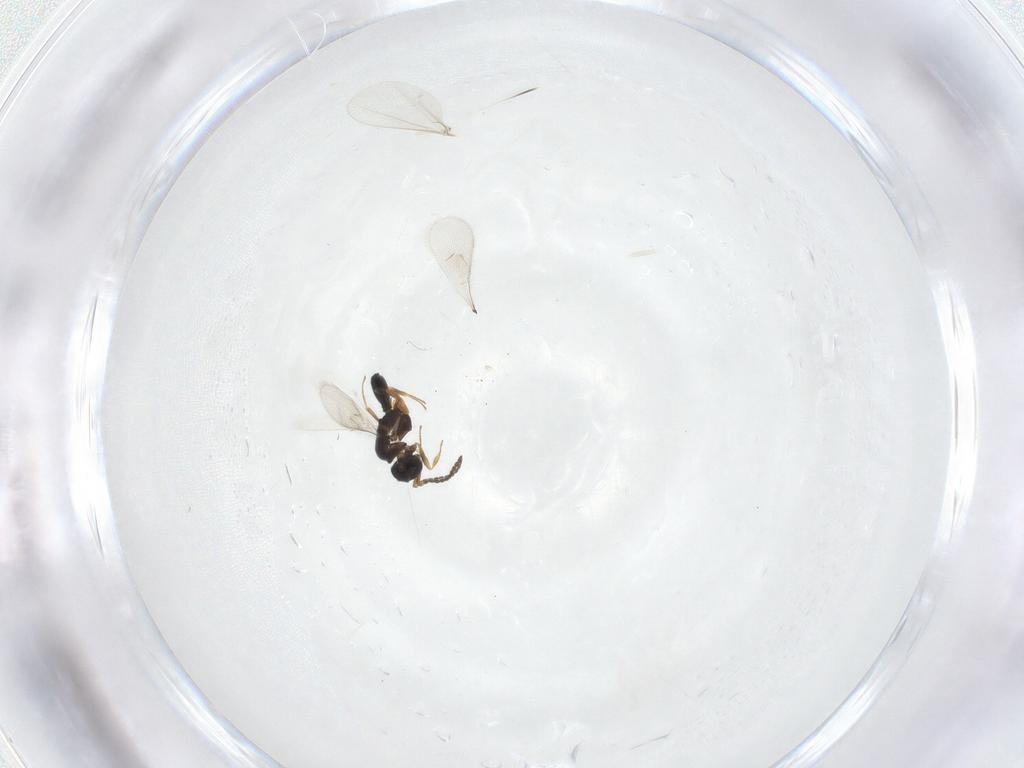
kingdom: Animalia
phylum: Arthropoda
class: Insecta
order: Hymenoptera
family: Scelionidae
